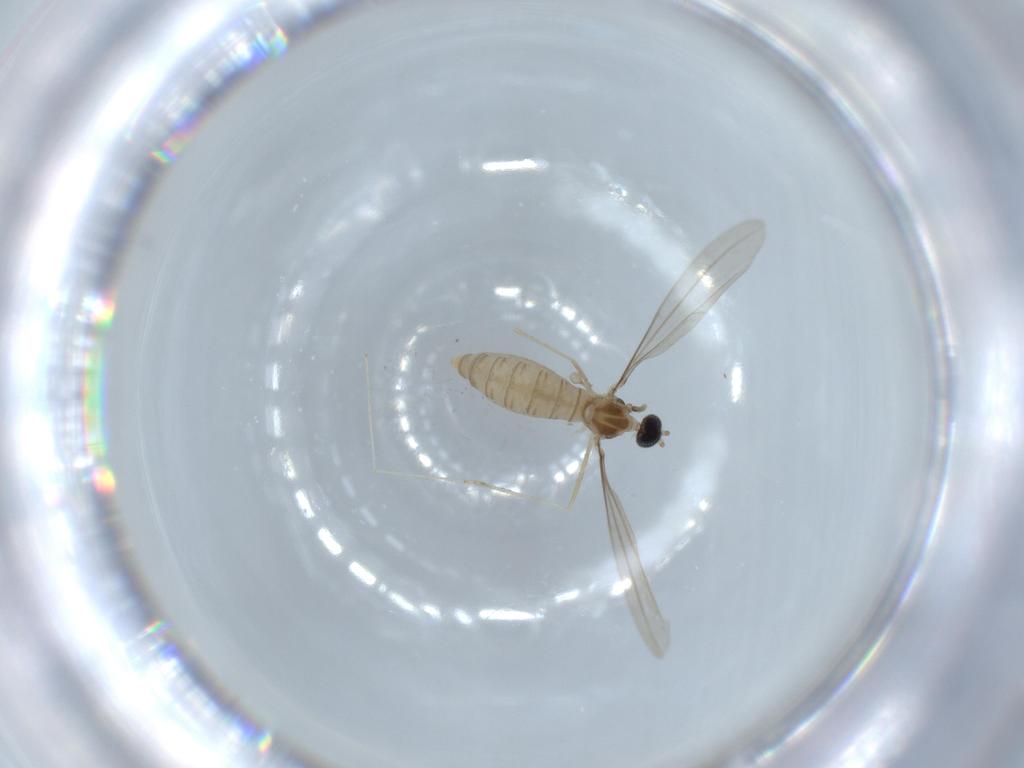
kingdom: Animalia
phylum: Arthropoda
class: Insecta
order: Diptera
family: Cecidomyiidae
